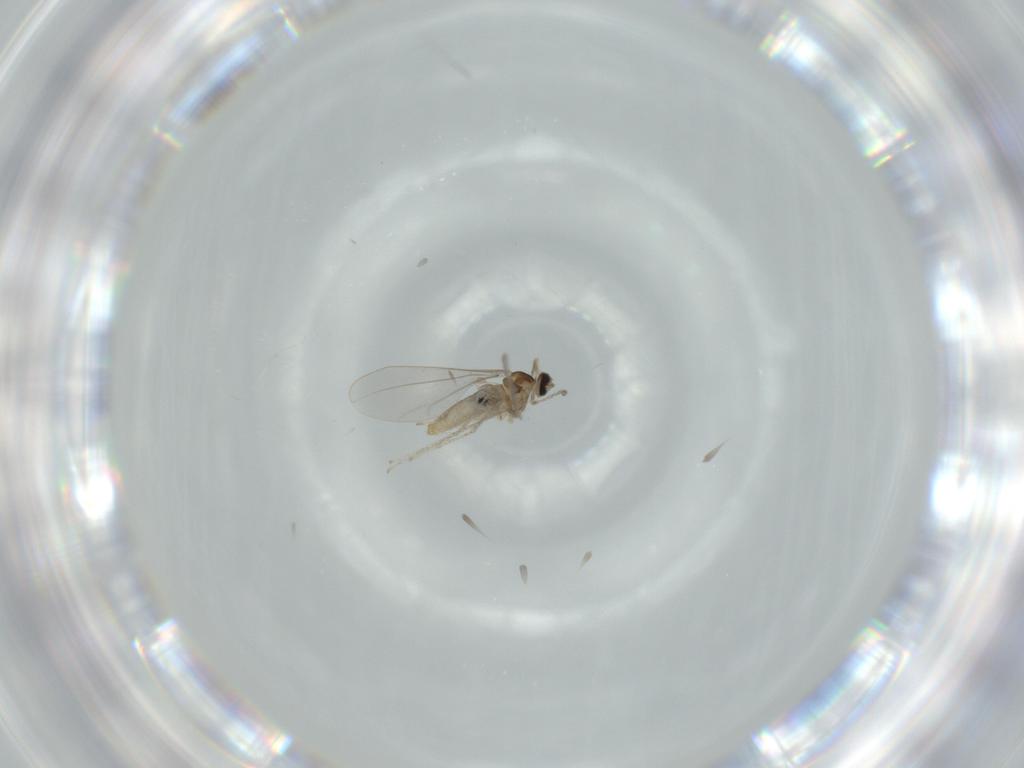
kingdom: Animalia
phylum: Arthropoda
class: Insecta
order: Diptera
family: Cecidomyiidae
